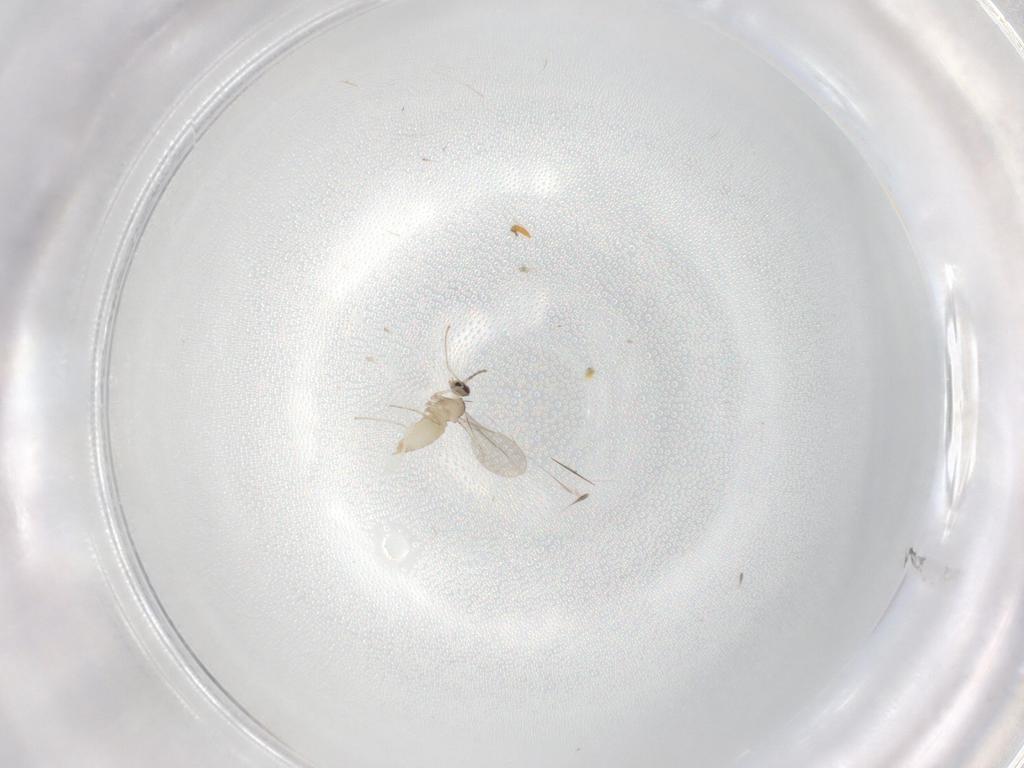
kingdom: Animalia
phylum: Arthropoda
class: Insecta
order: Diptera
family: Cecidomyiidae
